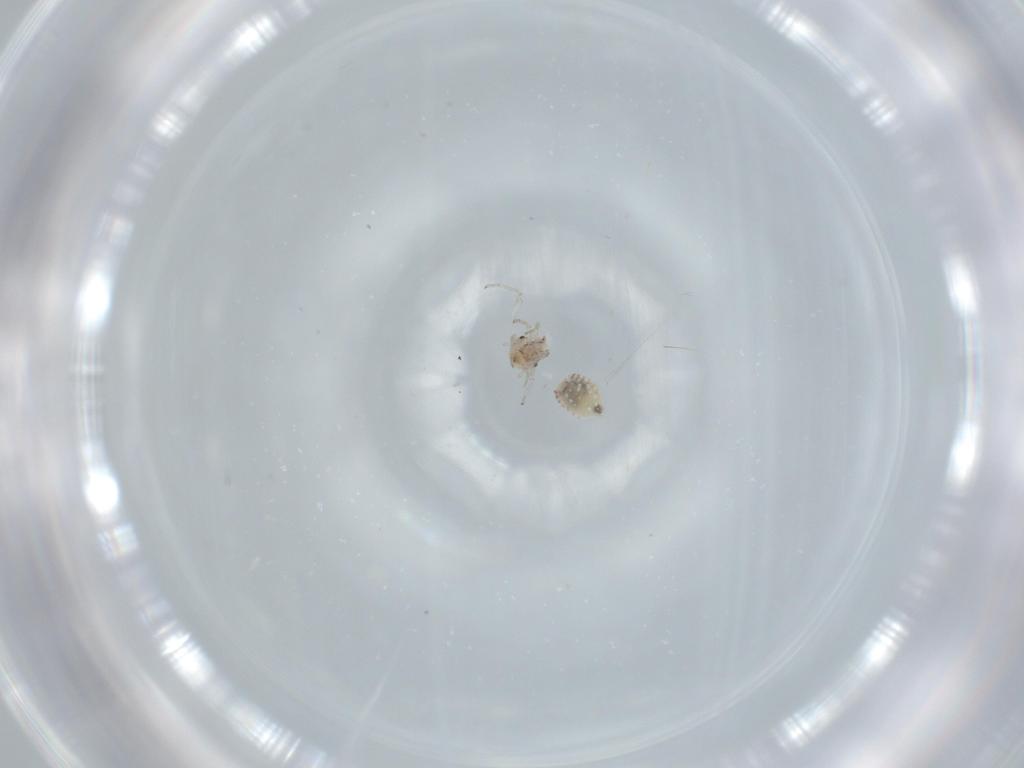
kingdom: Animalia
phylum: Arthropoda
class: Insecta
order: Psocodea
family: Lachesillidae
